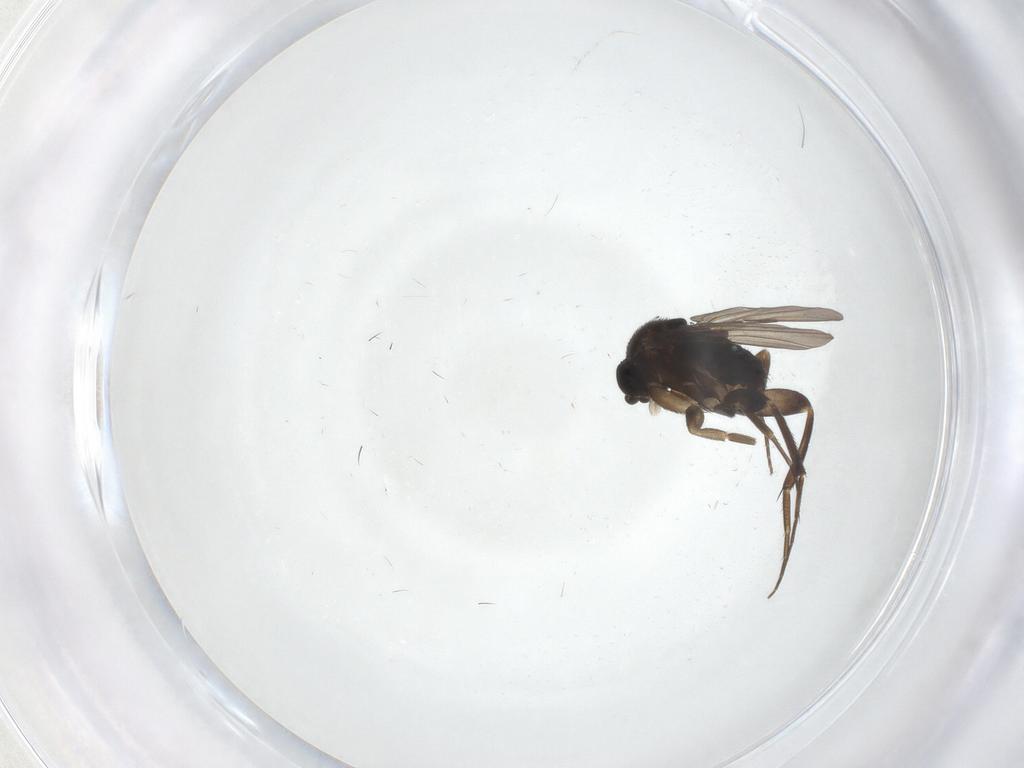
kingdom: Animalia
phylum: Arthropoda
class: Insecta
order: Diptera
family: Phoridae
